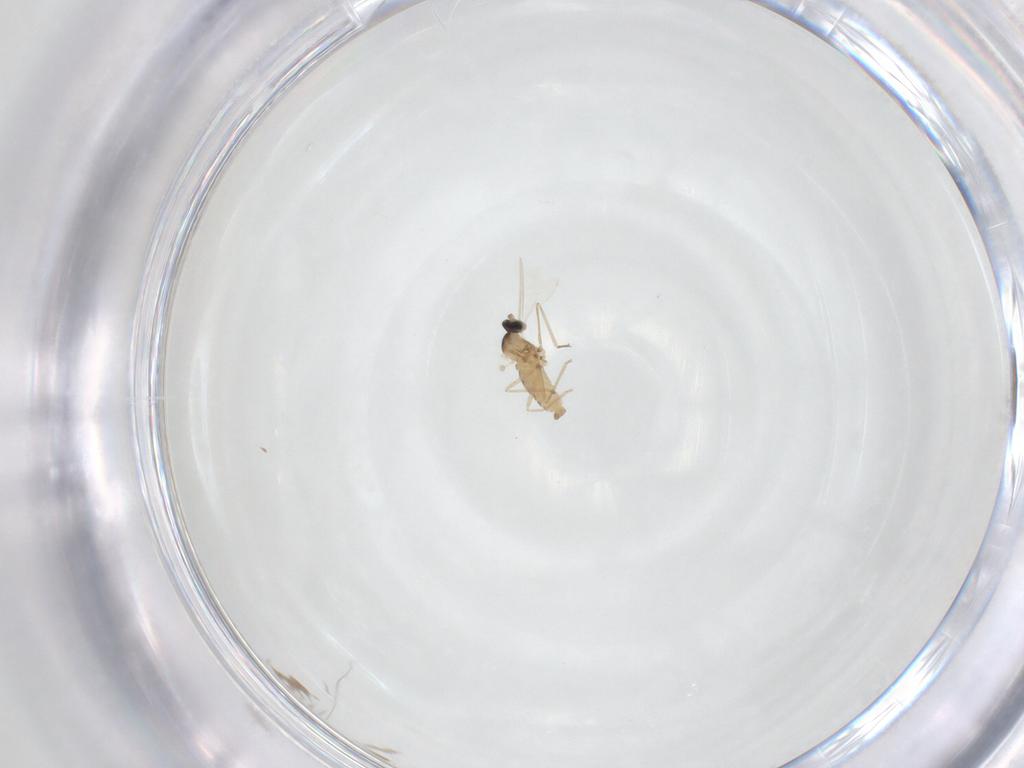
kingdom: Animalia
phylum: Arthropoda
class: Insecta
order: Diptera
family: Cecidomyiidae
